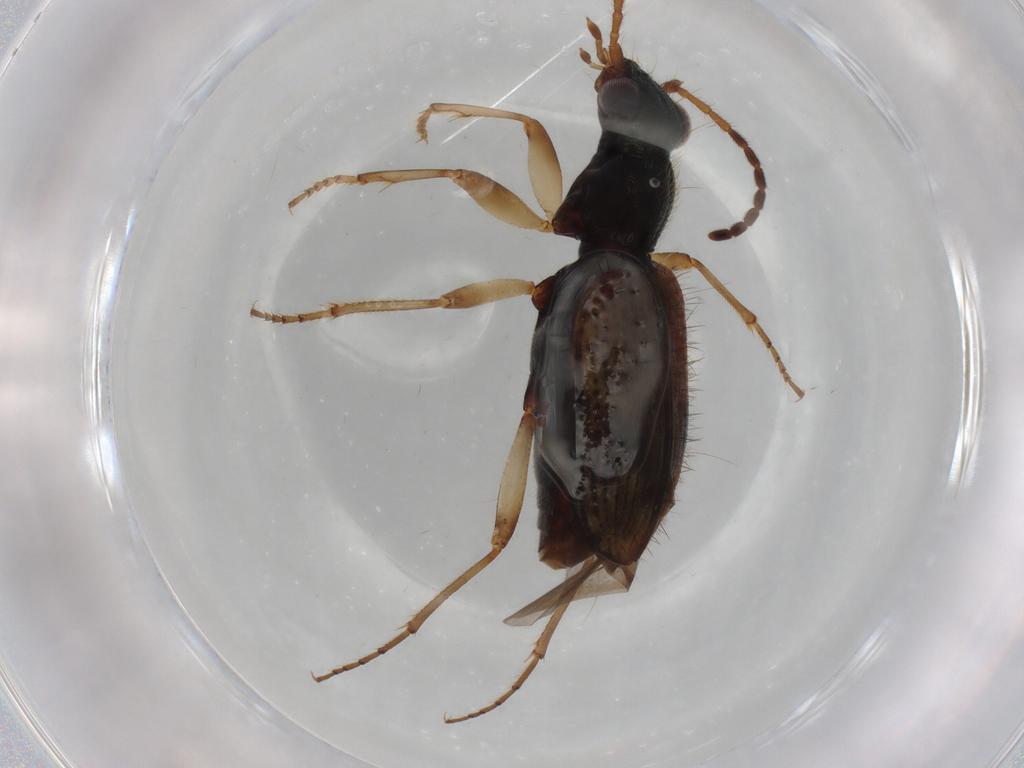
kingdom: Animalia
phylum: Arthropoda
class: Insecta
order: Coleoptera
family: Carabidae
